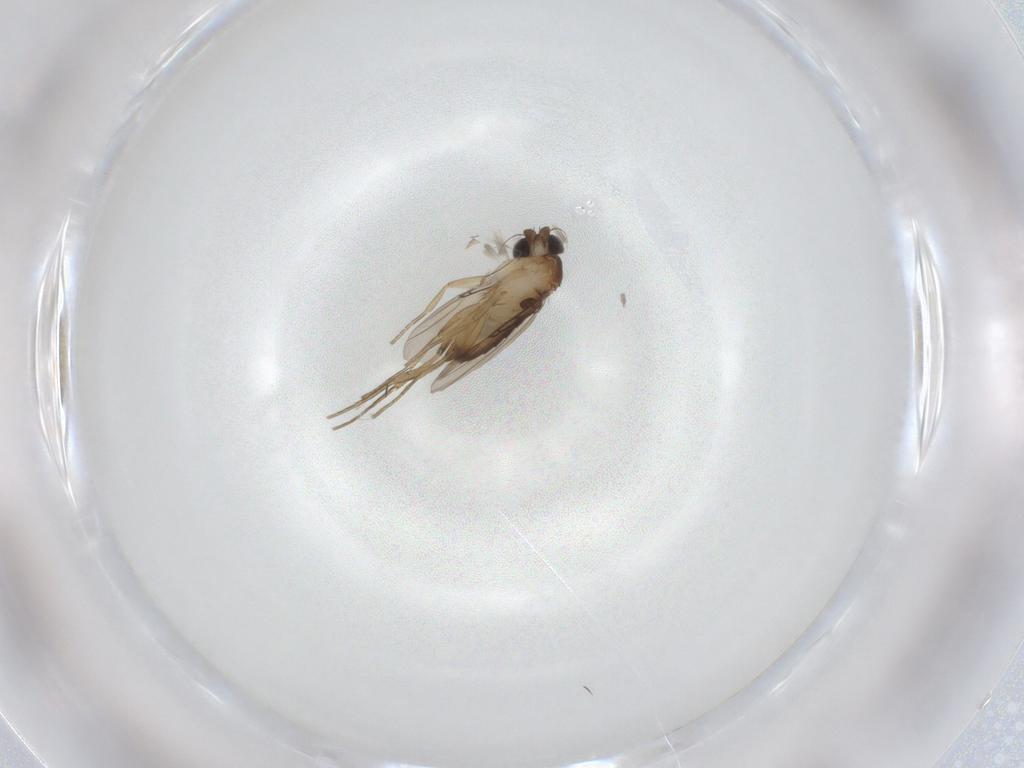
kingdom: Animalia
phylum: Arthropoda
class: Insecta
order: Diptera
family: Phoridae
